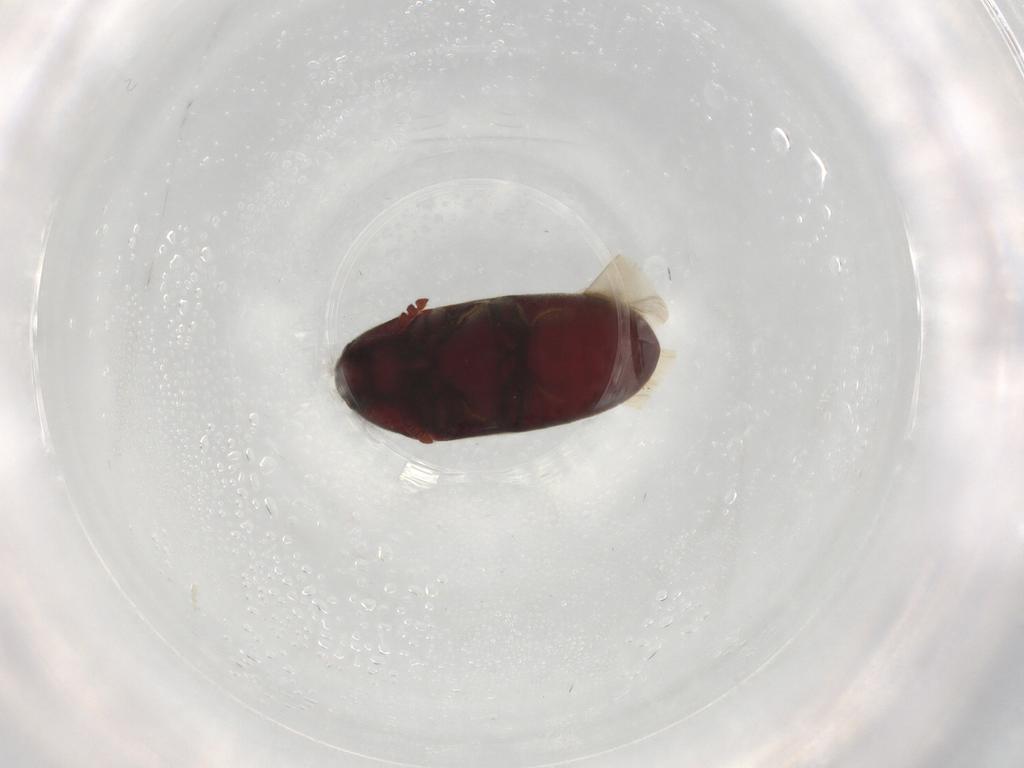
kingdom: Animalia
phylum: Arthropoda
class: Insecta
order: Coleoptera
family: Throscidae
